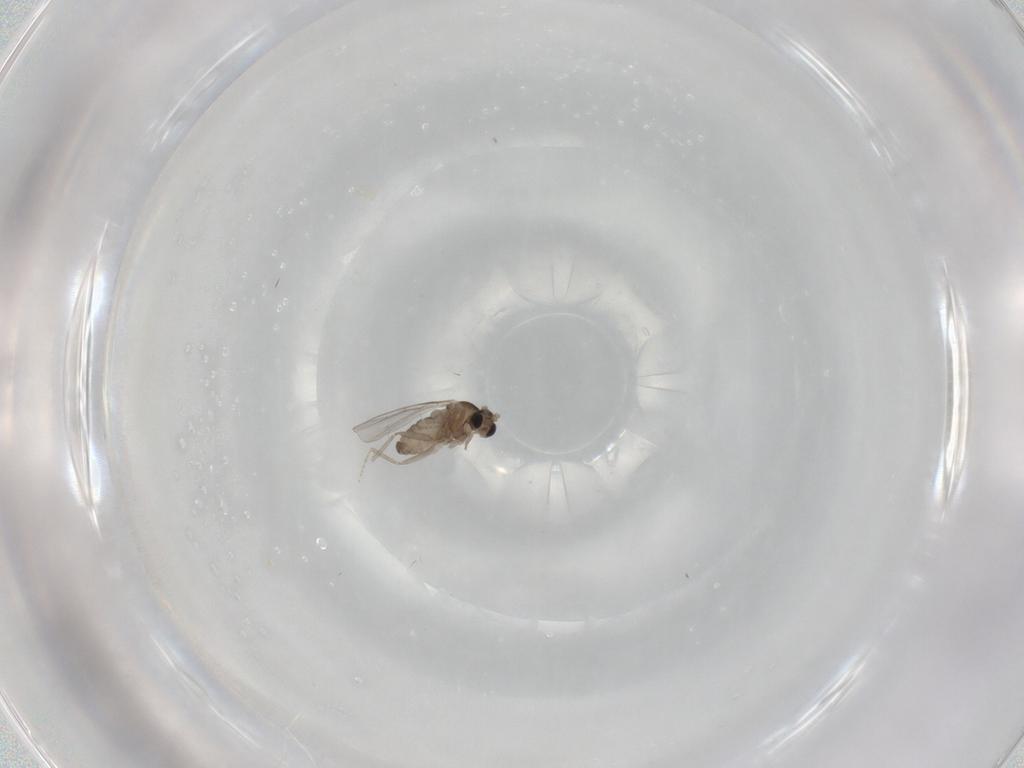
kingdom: Animalia
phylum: Arthropoda
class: Insecta
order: Diptera
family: Cecidomyiidae
